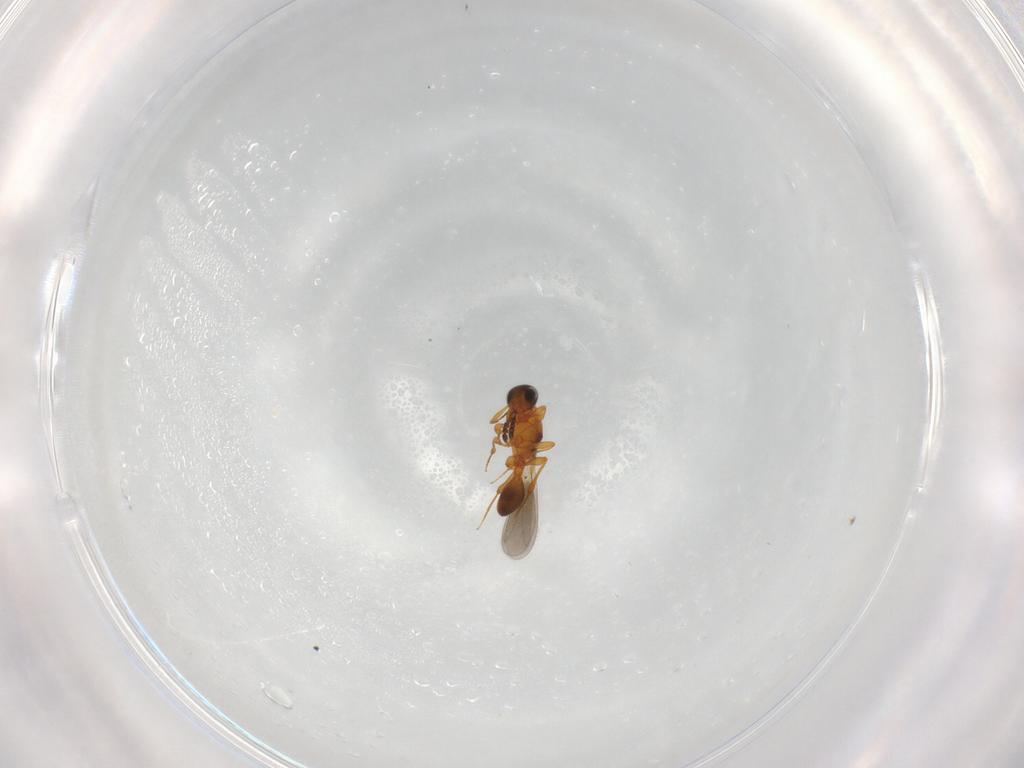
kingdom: Animalia
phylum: Arthropoda
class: Insecta
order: Hymenoptera
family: Platygastridae
